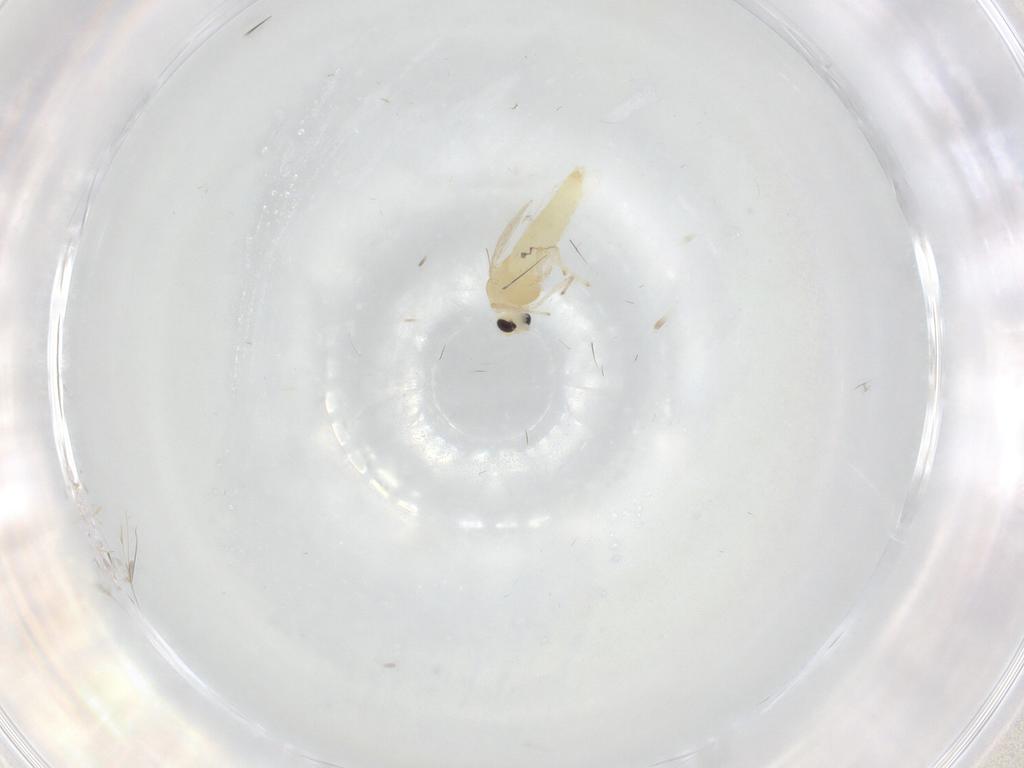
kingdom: Animalia
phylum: Arthropoda
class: Insecta
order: Diptera
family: Chironomidae
